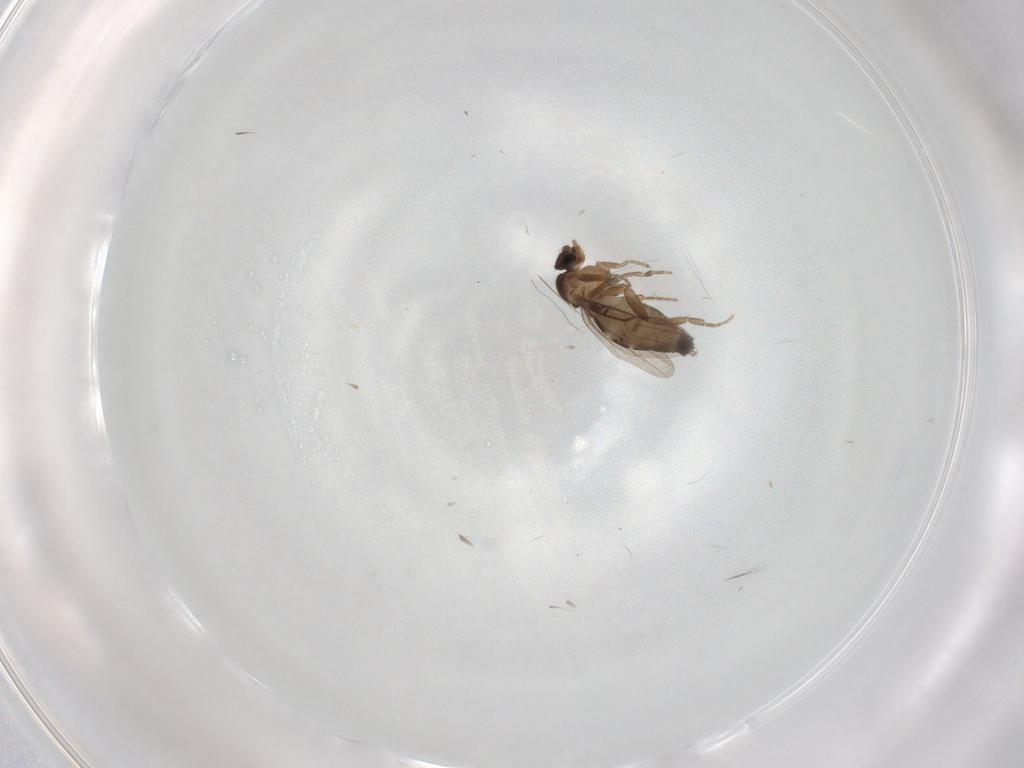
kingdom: Animalia
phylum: Arthropoda
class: Insecta
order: Diptera
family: Phoridae
